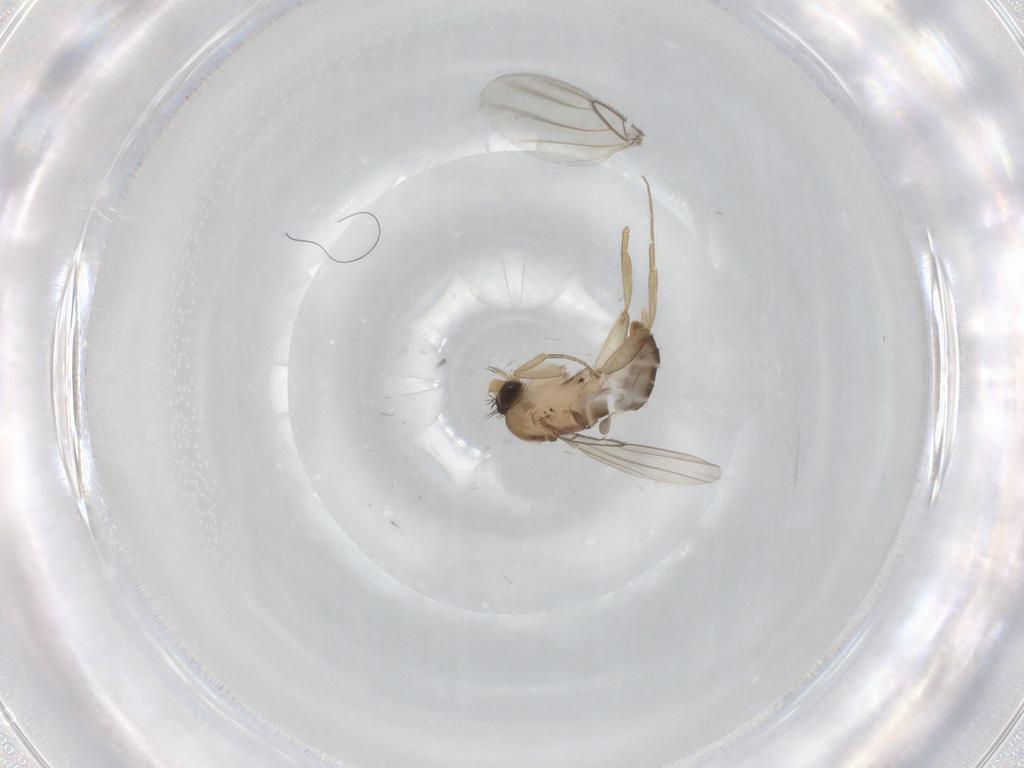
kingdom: Animalia
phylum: Arthropoda
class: Insecta
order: Diptera
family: Phoridae
